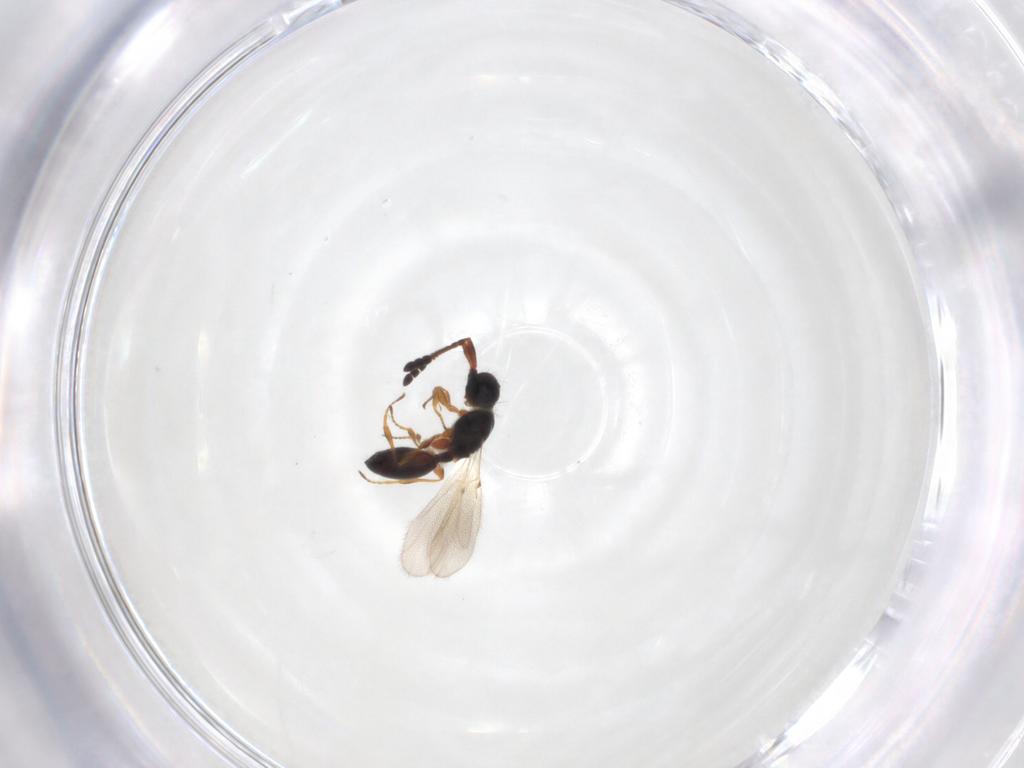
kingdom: Animalia
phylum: Arthropoda
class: Insecta
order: Hymenoptera
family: Diapriidae
